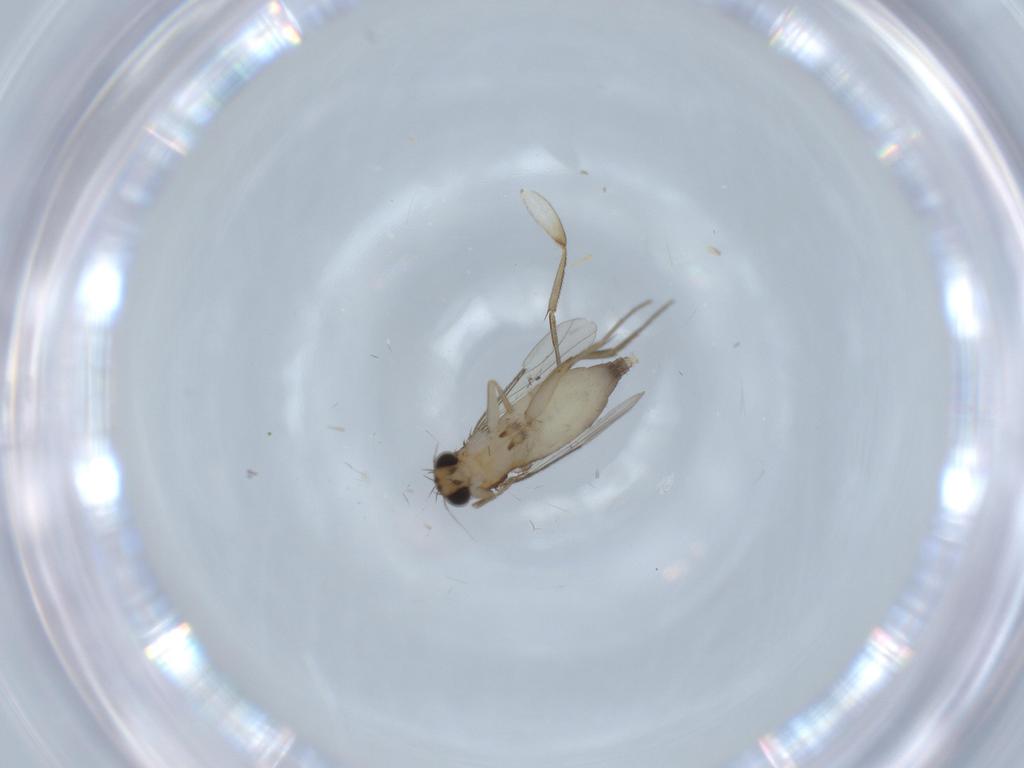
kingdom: Animalia
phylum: Arthropoda
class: Insecta
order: Diptera
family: Phoridae
